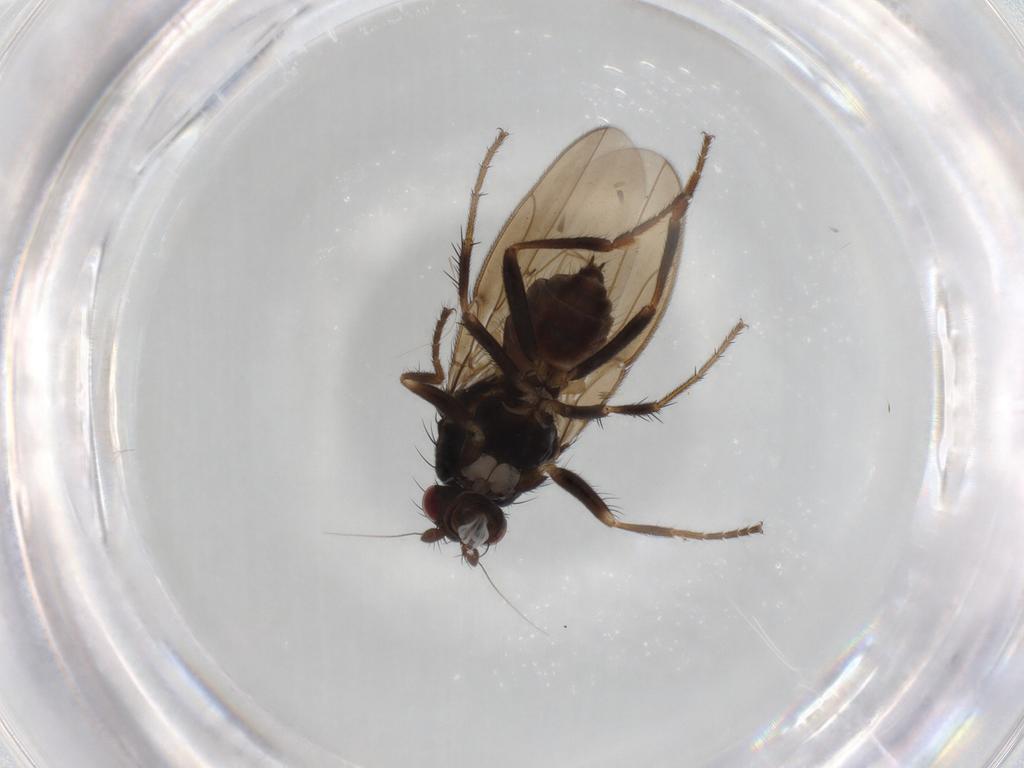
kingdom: Animalia
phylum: Arthropoda
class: Insecta
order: Diptera
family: Sphaeroceridae
